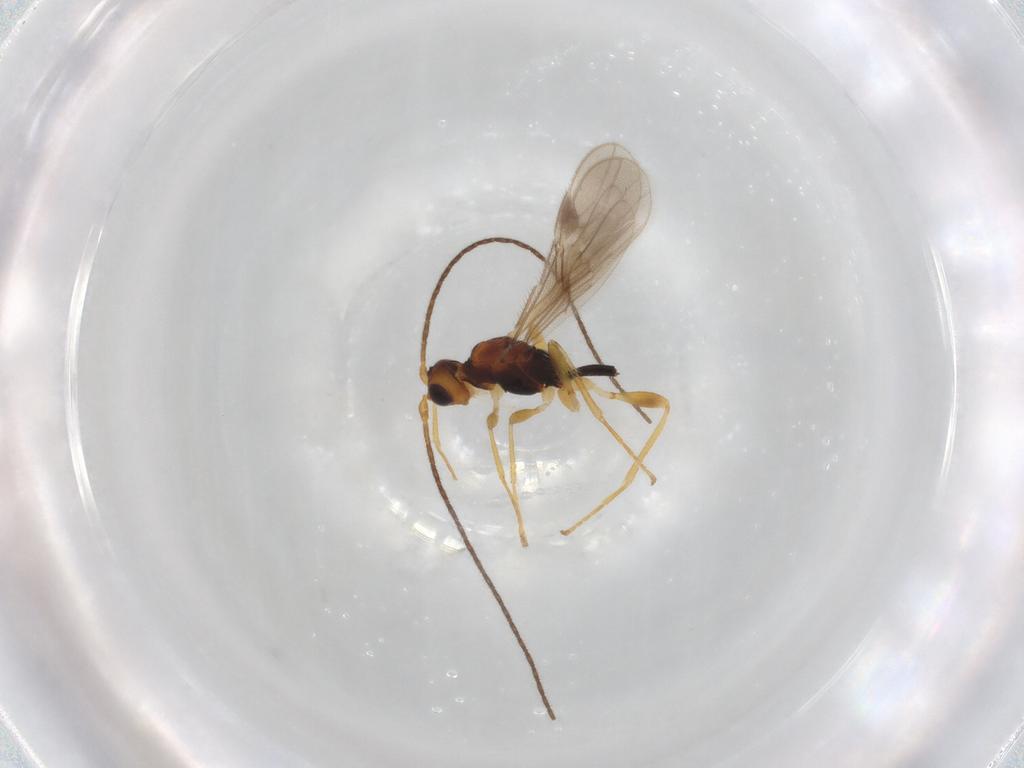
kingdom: Animalia
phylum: Arthropoda
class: Insecta
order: Hymenoptera
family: Braconidae
